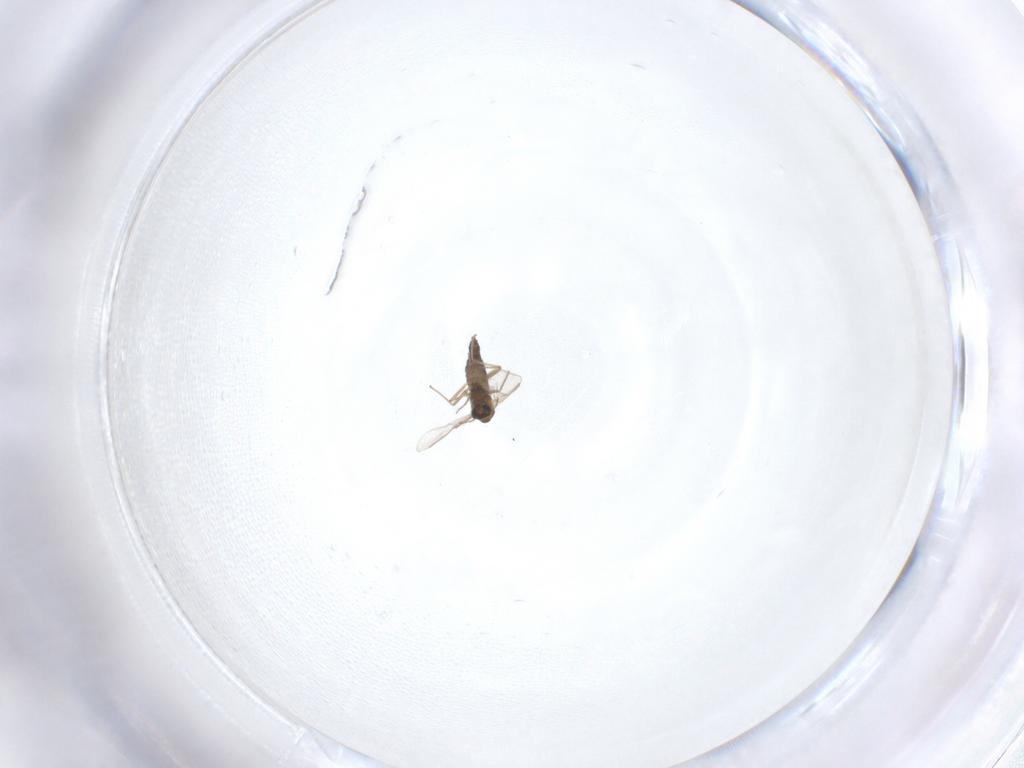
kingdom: Animalia
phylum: Arthropoda
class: Insecta
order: Diptera
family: Chironomidae
